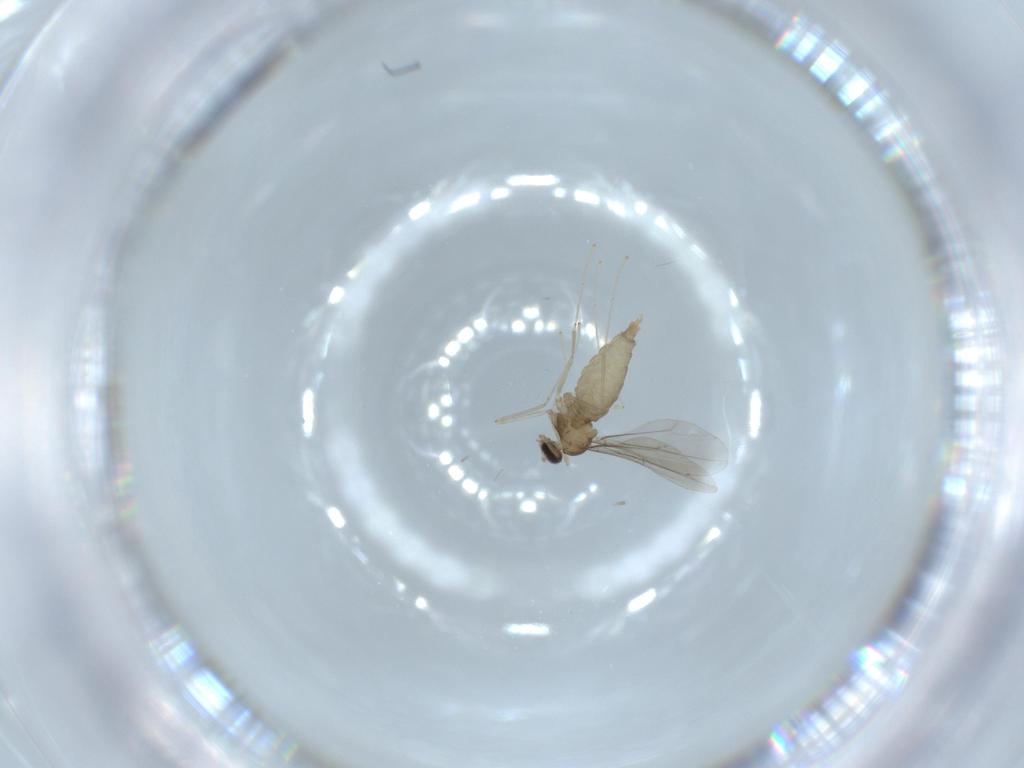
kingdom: Animalia
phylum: Arthropoda
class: Insecta
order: Diptera
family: Cecidomyiidae
